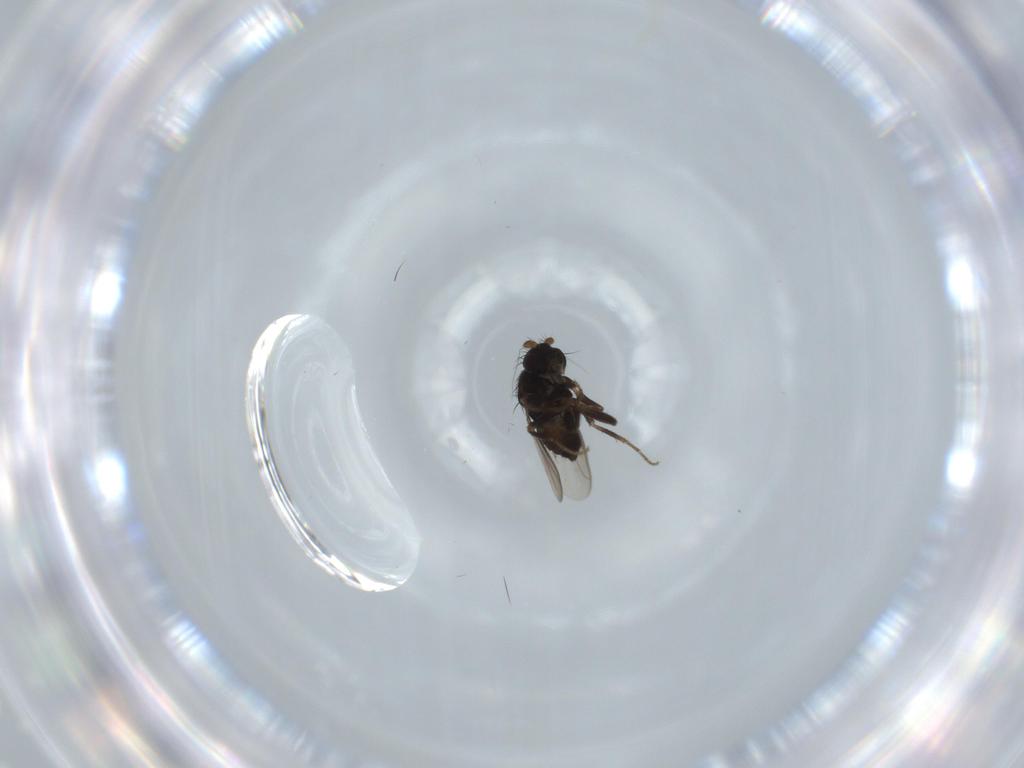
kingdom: Animalia
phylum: Arthropoda
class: Insecta
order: Diptera
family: Sphaeroceridae
